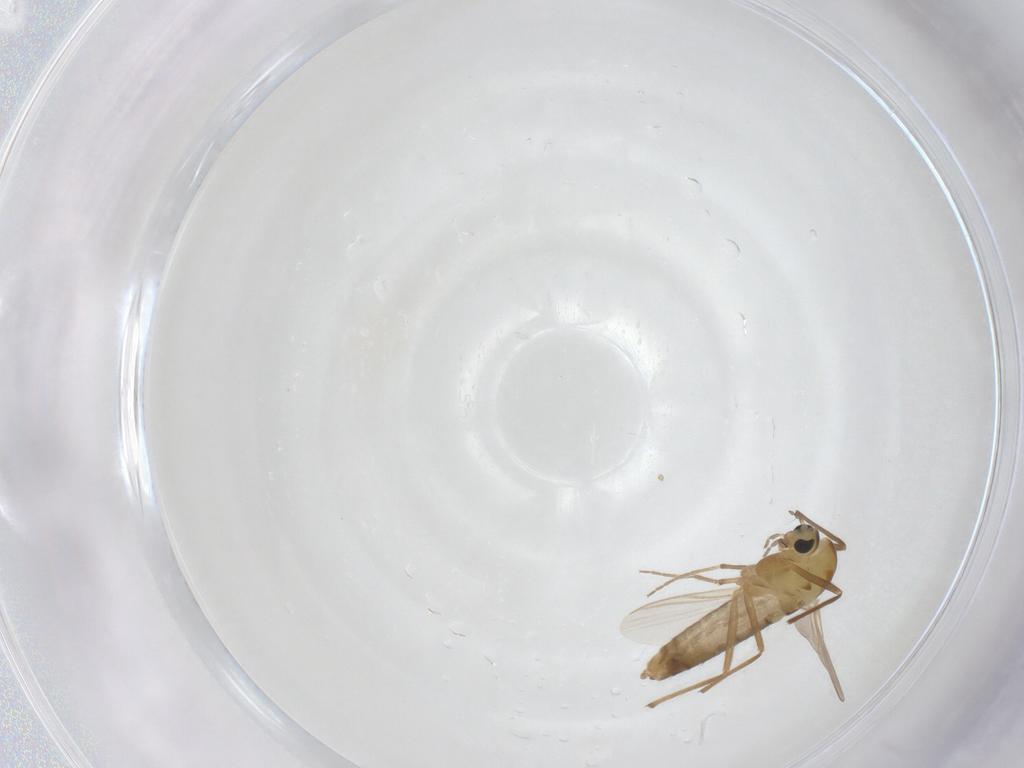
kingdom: Animalia
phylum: Arthropoda
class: Insecta
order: Diptera
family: Chironomidae
